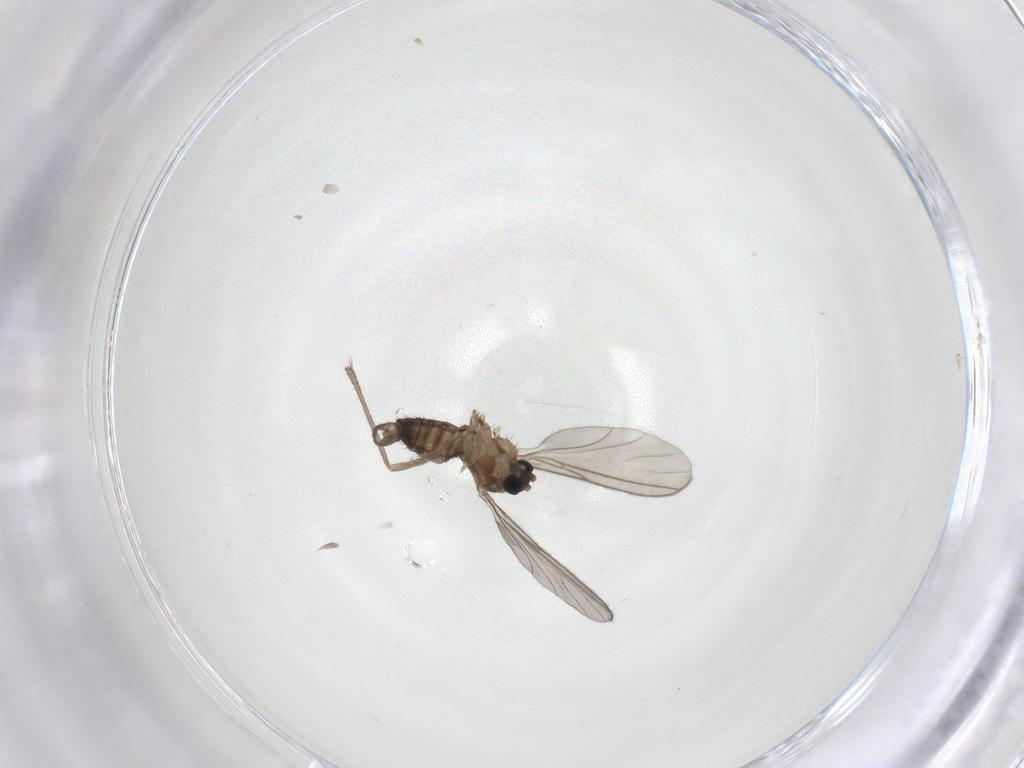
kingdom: Animalia
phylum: Arthropoda
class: Insecta
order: Diptera
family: Sciaridae
